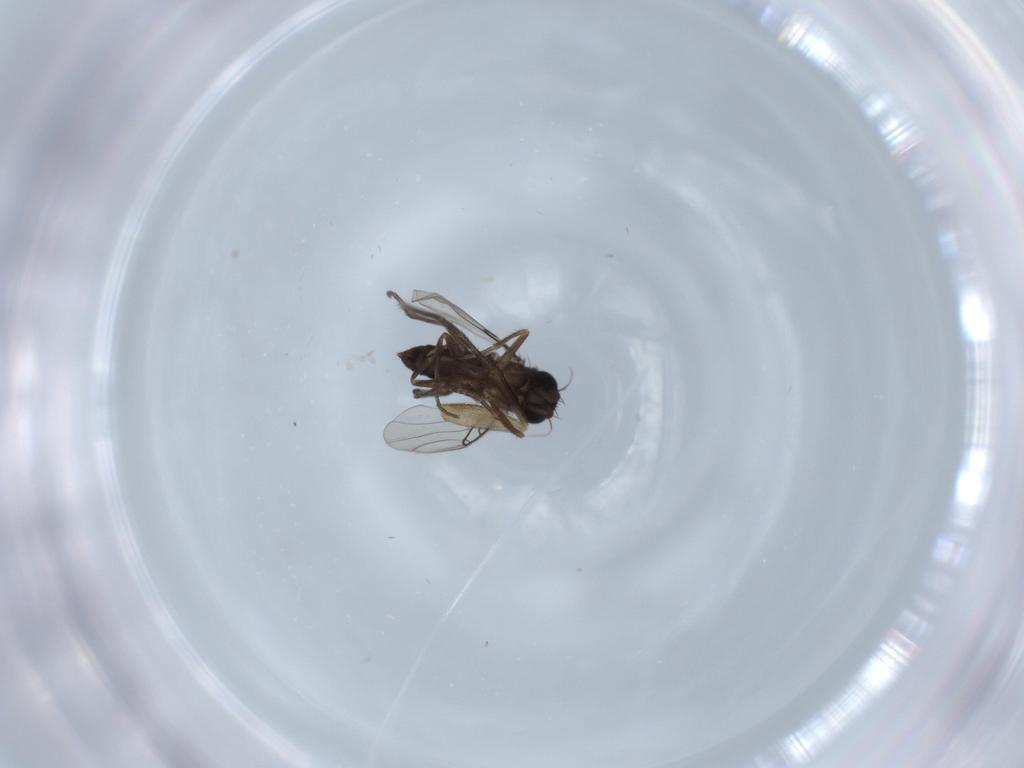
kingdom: Animalia
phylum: Arthropoda
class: Insecta
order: Diptera
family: Phoridae
